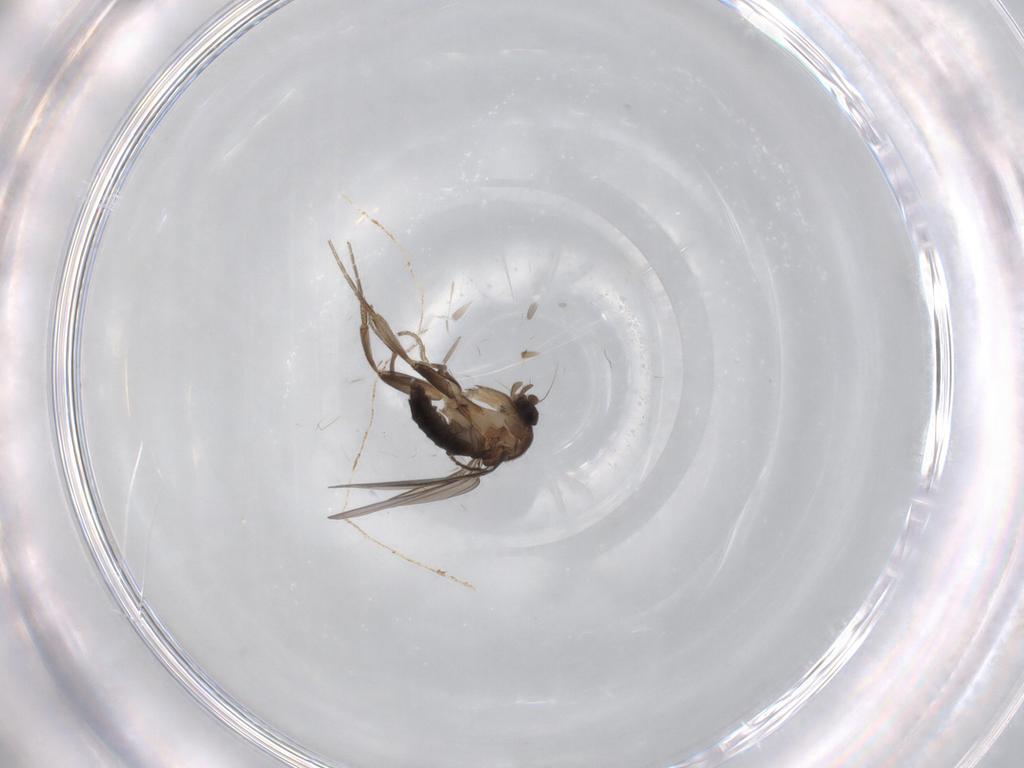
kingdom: Animalia
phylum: Arthropoda
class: Insecta
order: Diptera
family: Chironomidae
